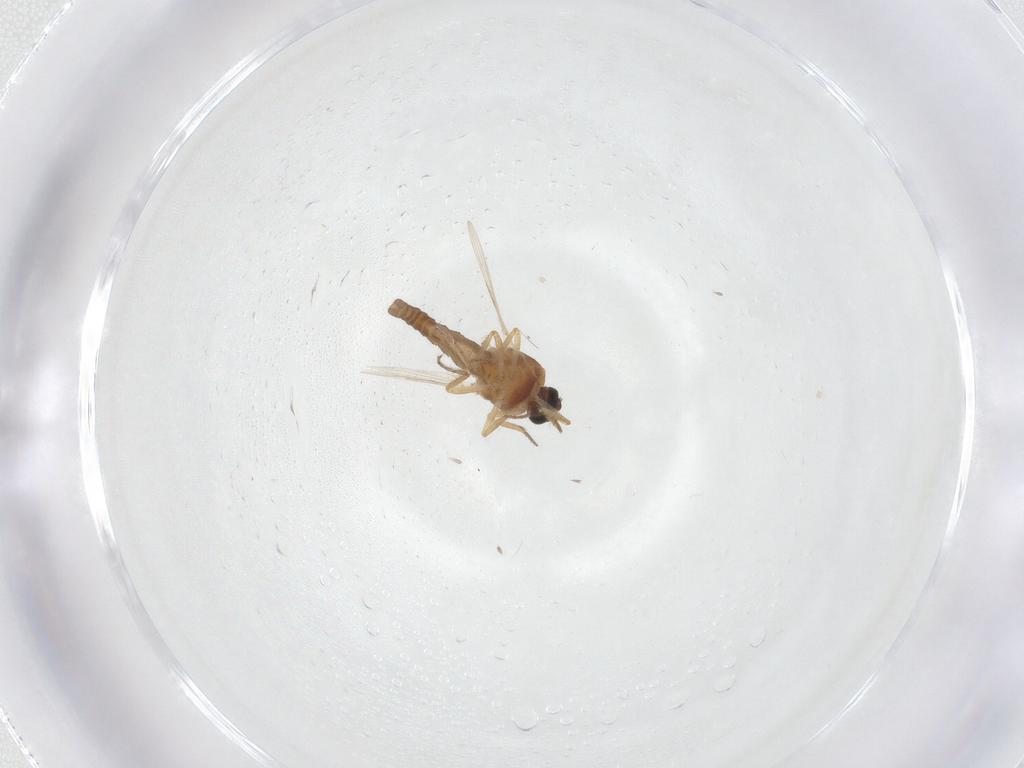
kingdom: Animalia
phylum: Arthropoda
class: Insecta
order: Diptera
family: Ceratopogonidae
